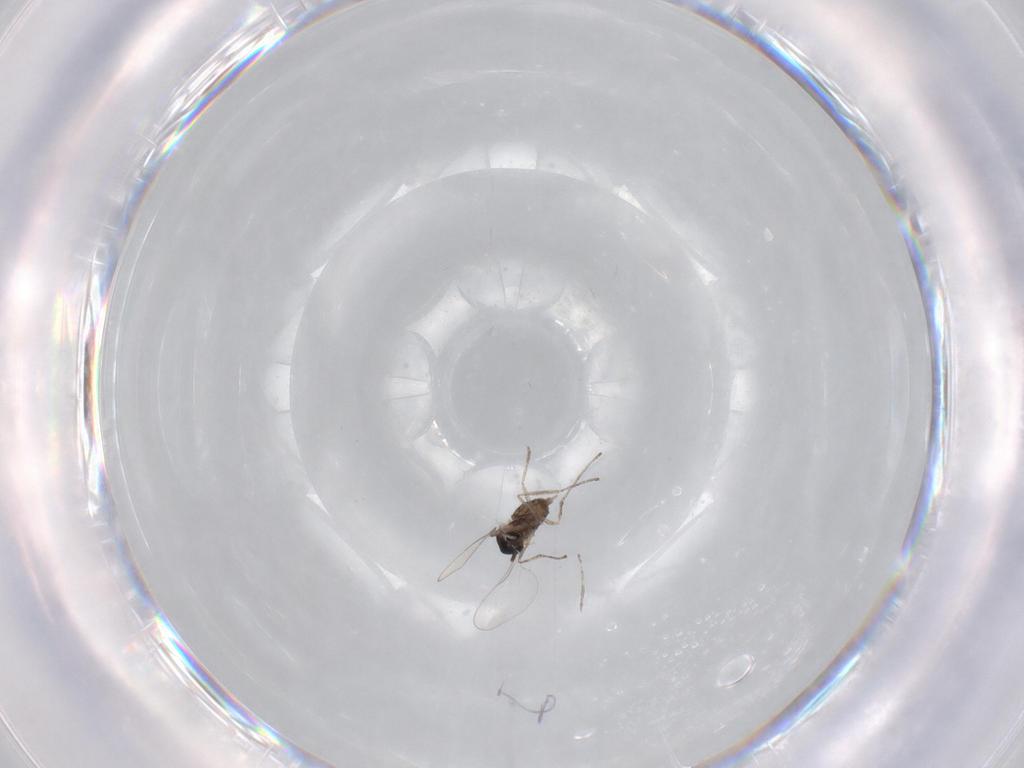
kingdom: Animalia
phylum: Arthropoda
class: Insecta
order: Diptera
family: Cecidomyiidae
